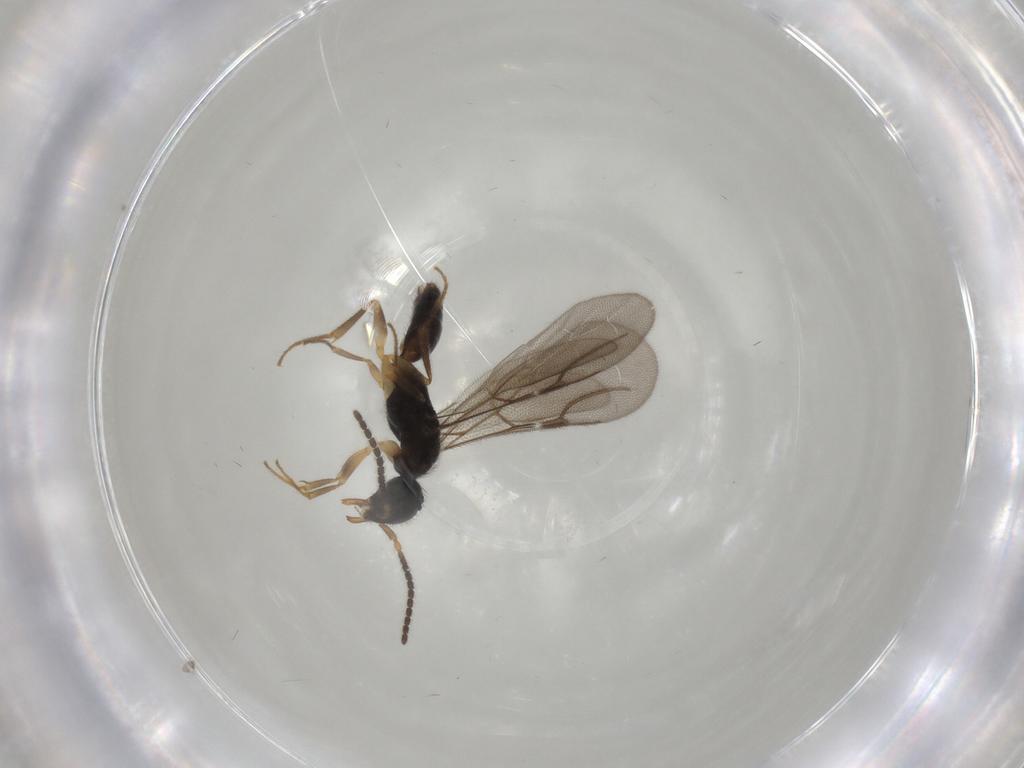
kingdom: Animalia
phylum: Arthropoda
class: Insecta
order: Hymenoptera
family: Bethylidae
